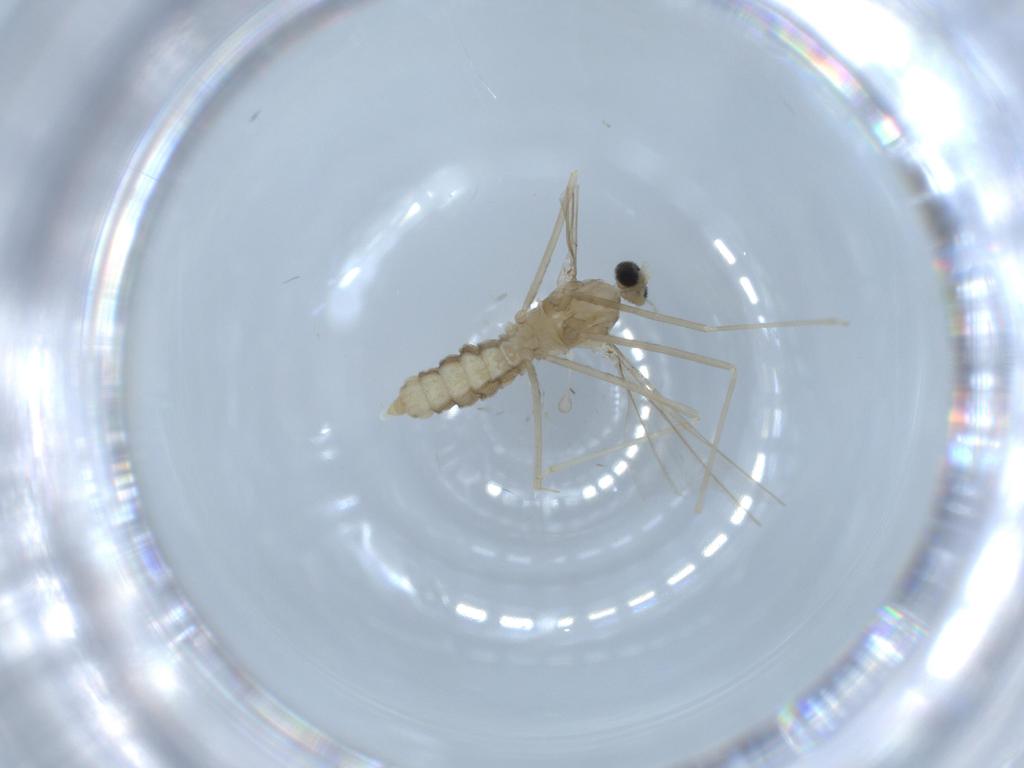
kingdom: Animalia
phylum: Arthropoda
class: Insecta
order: Diptera
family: Cecidomyiidae
